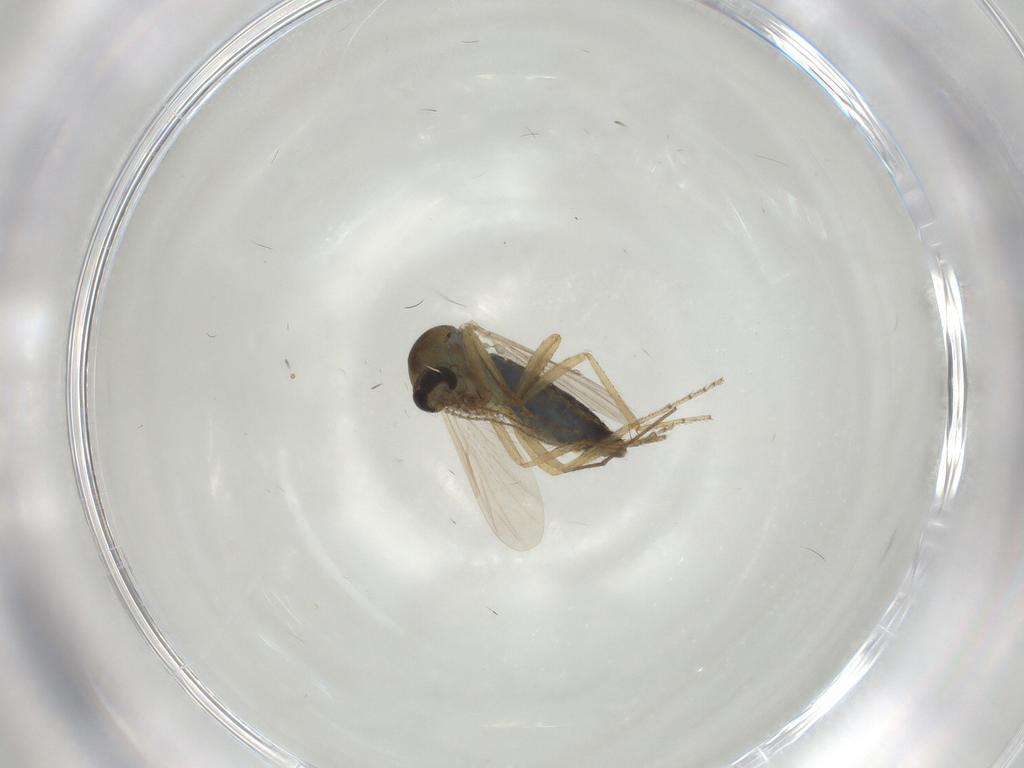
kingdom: Animalia
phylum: Arthropoda
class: Insecta
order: Diptera
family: Ceratopogonidae
